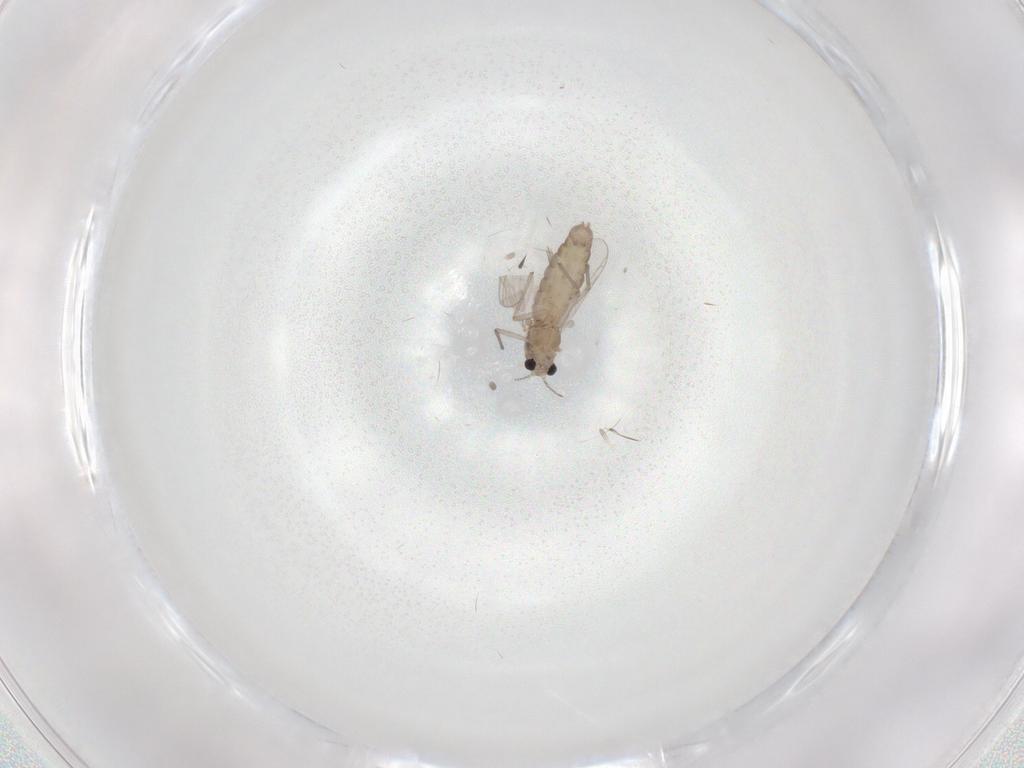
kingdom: Animalia
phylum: Arthropoda
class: Insecta
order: Diptera
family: Chironomidae
